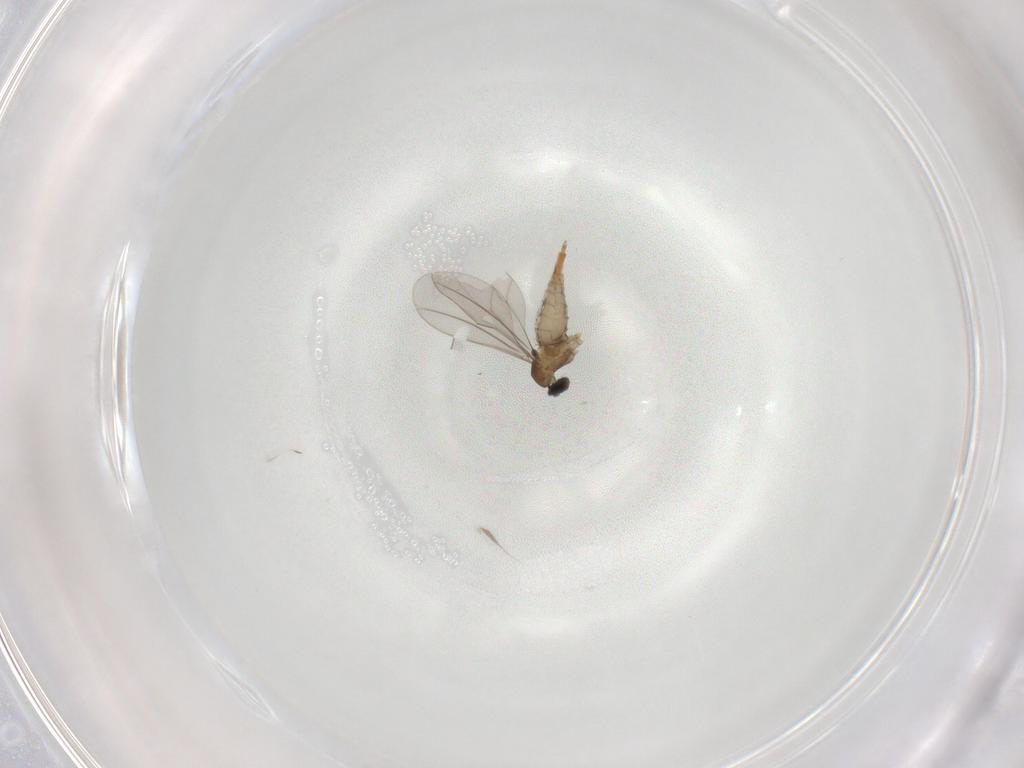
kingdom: Animalia
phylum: Arthropoda
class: Insecta
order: Diptera
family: Cecidomyiidae
